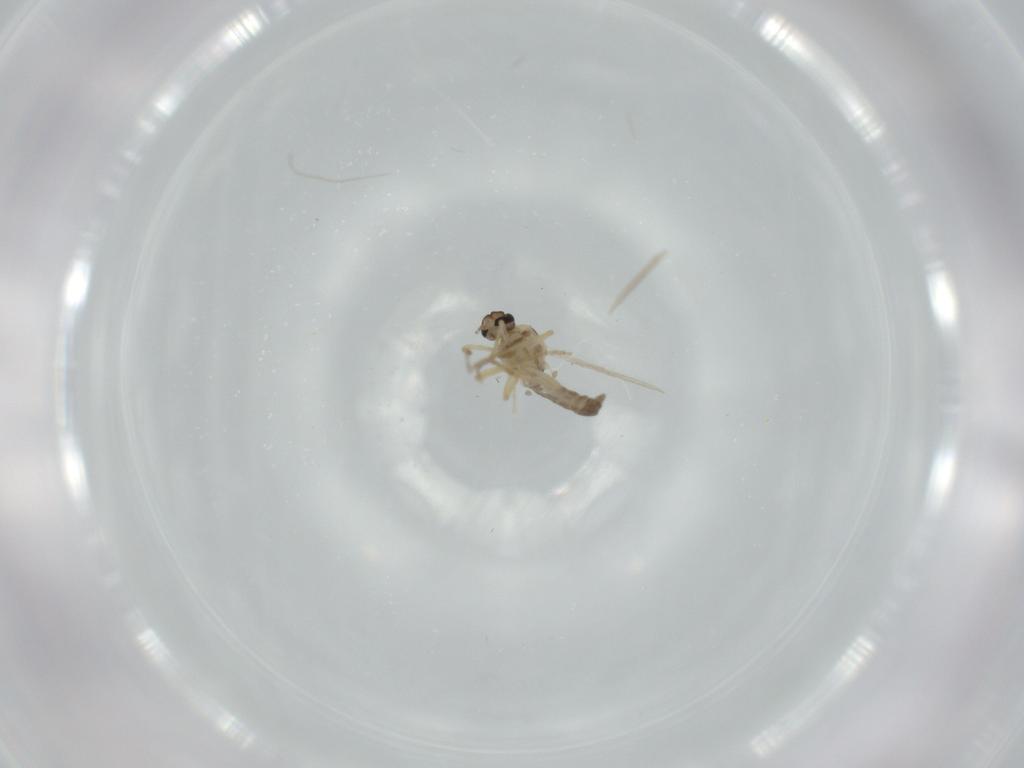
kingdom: Animalia
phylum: Arthropoda
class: Insecta
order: Diptera
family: Ceratopogonidae
